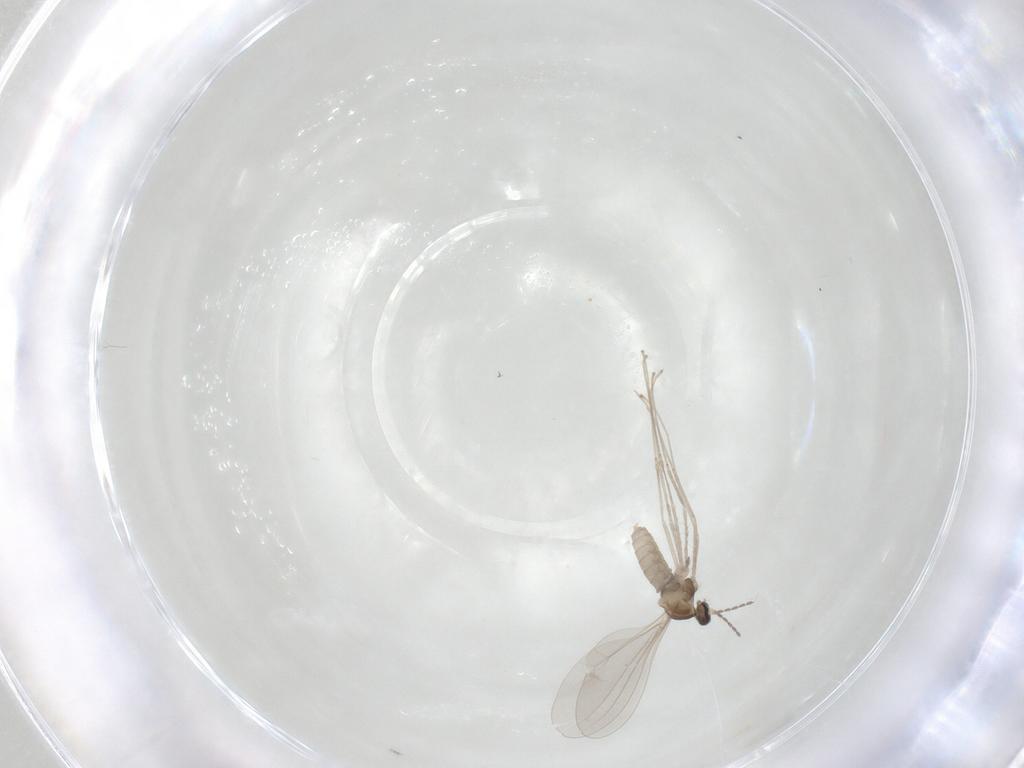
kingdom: Animalia
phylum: Arthropoda
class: Insecta
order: Diptera
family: Cecidomyiidae
